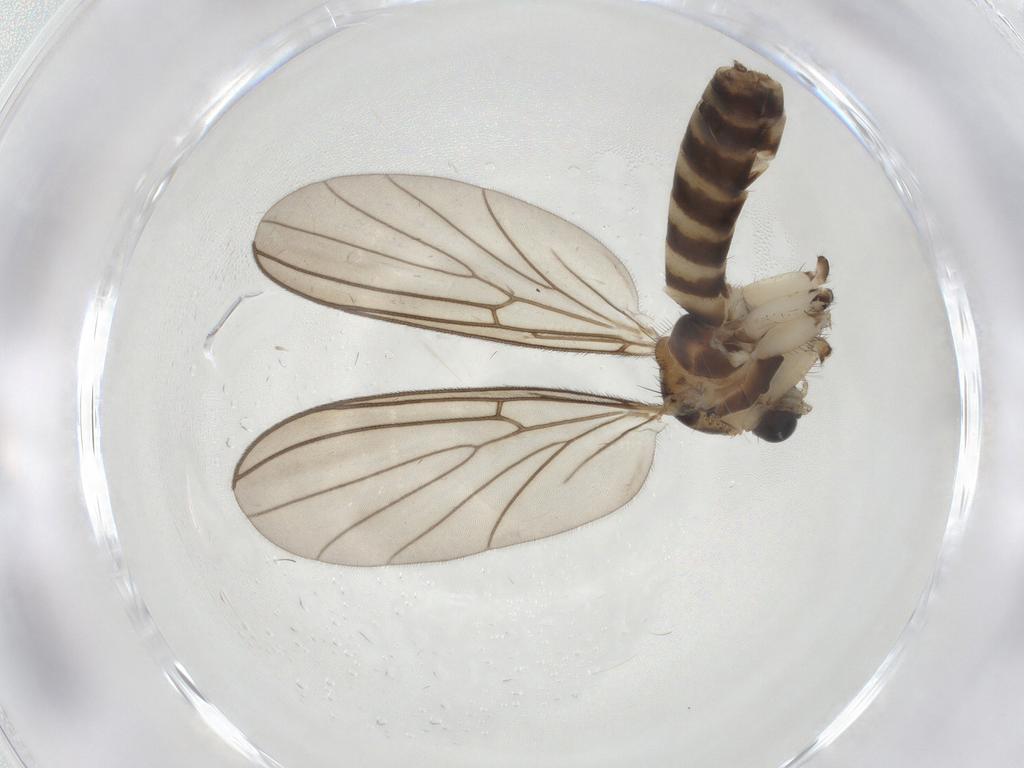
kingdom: Animalia
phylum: Arthropoda
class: Insecta
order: Diptera
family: Mycetophilidae
